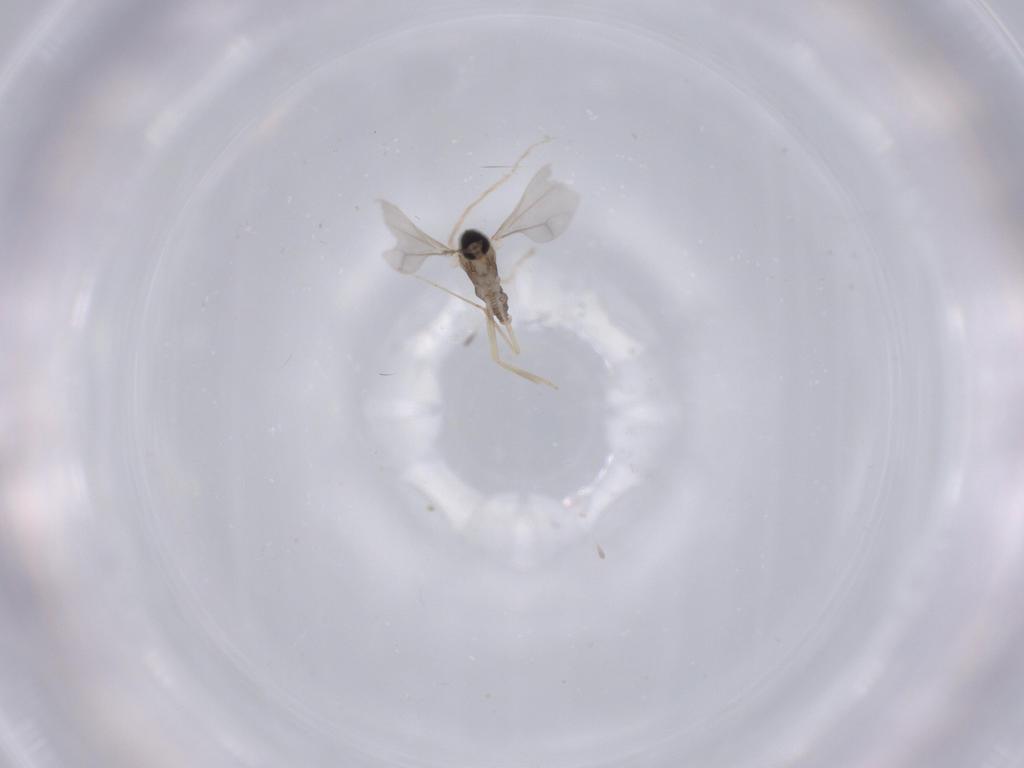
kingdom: Animalia
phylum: Arthropoda
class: Insecta
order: Diptera
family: Cecidomyiidae
